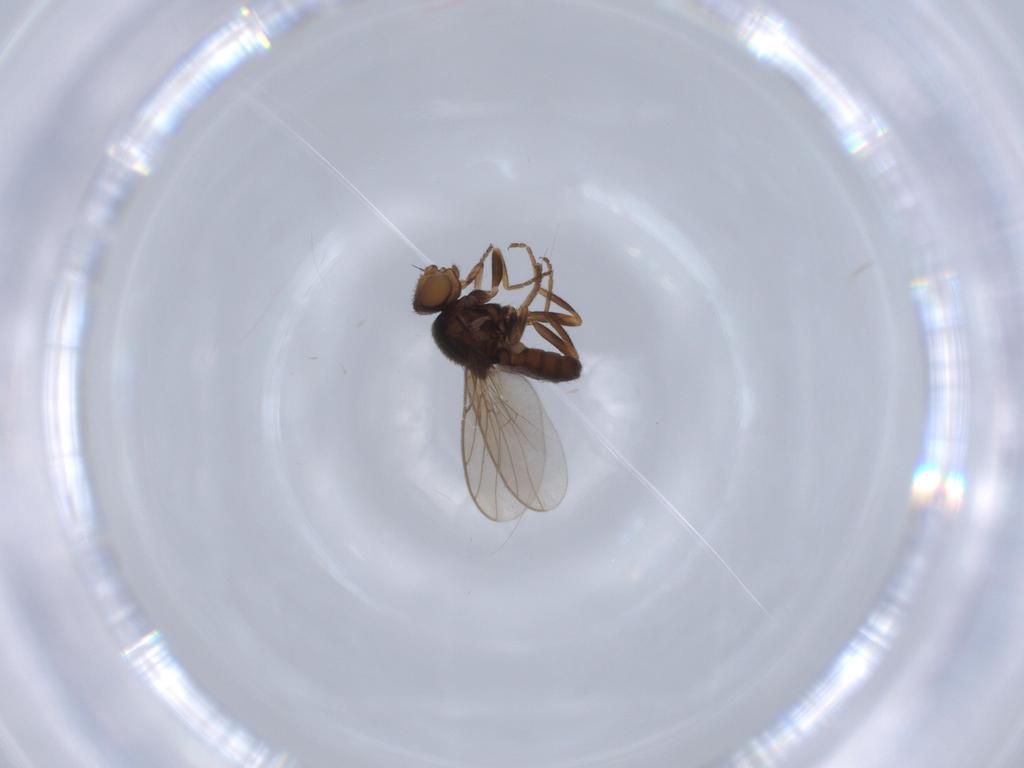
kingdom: Animalia
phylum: Arthropoda
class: Insecta
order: Diptera
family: Chloropidae
